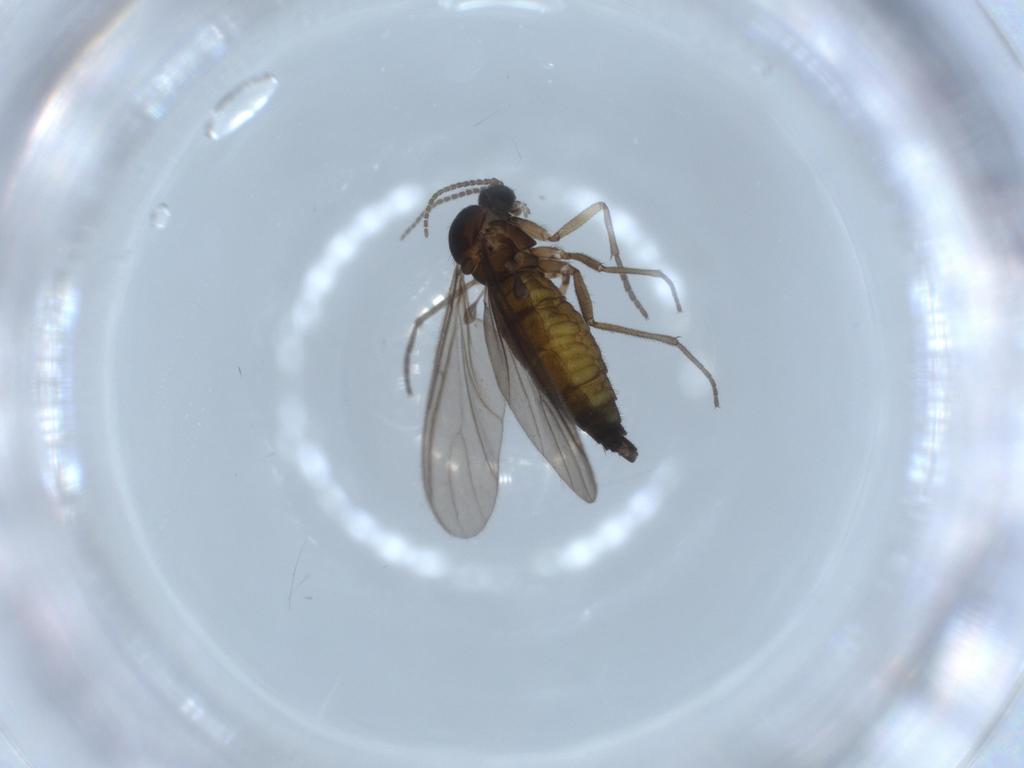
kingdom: Animalia
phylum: Arthropoda
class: Insecta
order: Diptera
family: Sciaridae
